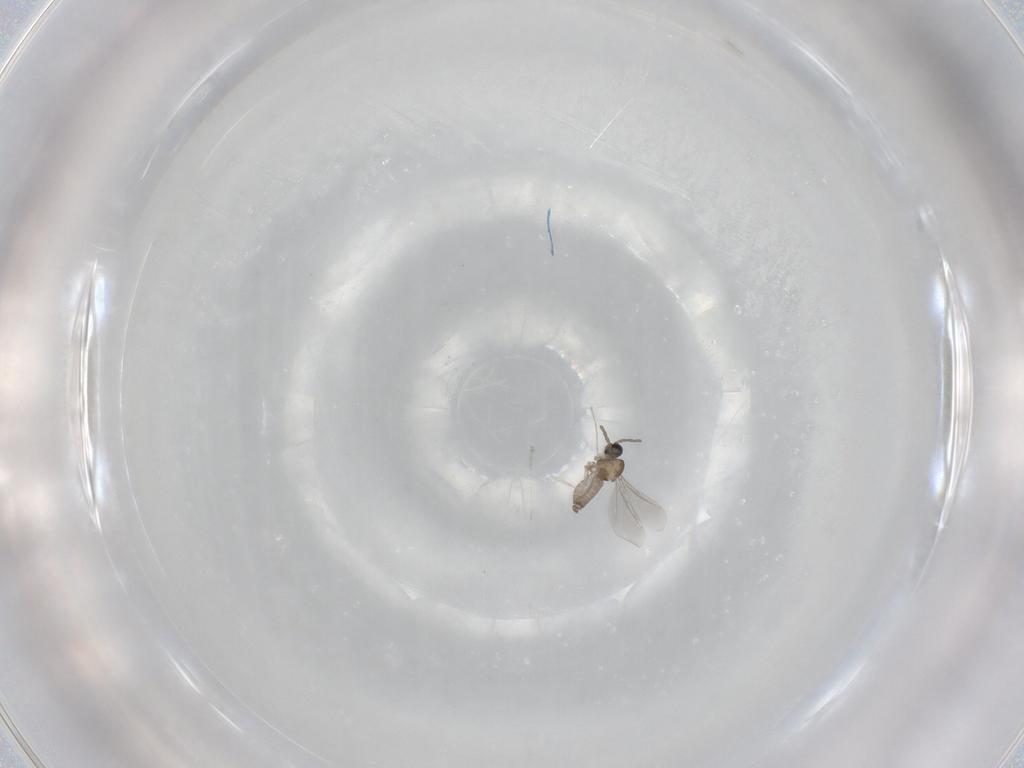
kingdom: Animalia
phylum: Arthropoda
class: Insecta
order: Diptera
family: Cecidomyiidae
